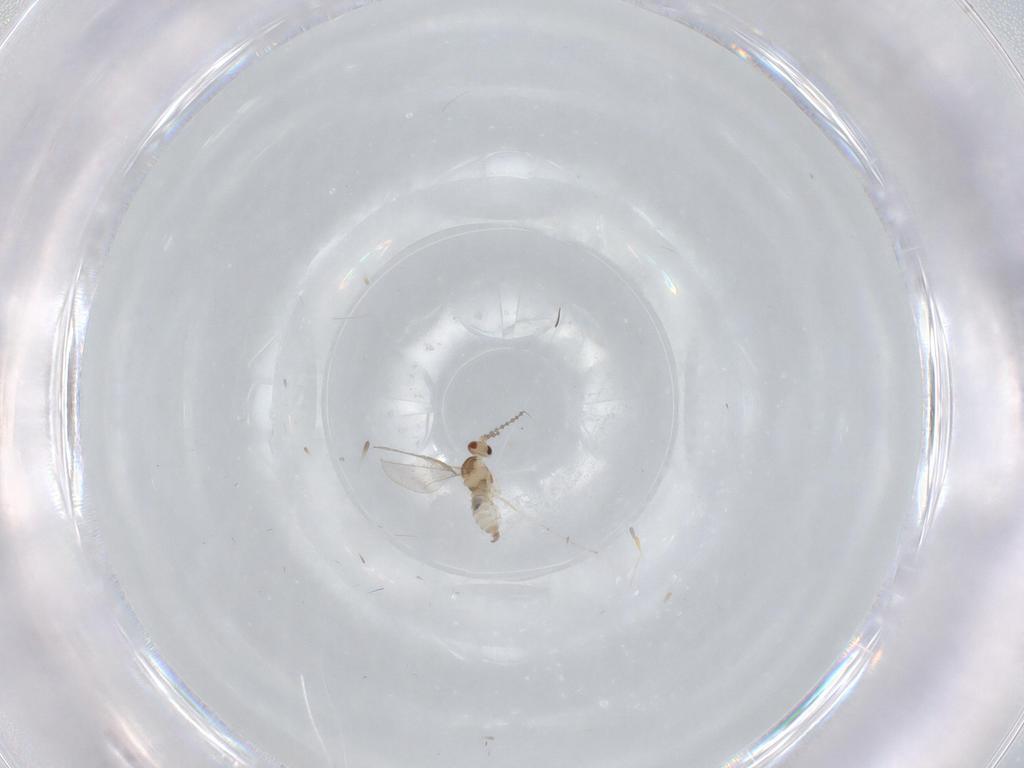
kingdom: Animalia
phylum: Arthropoda
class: Insecta
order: Diptera
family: Cecidomyiidae
